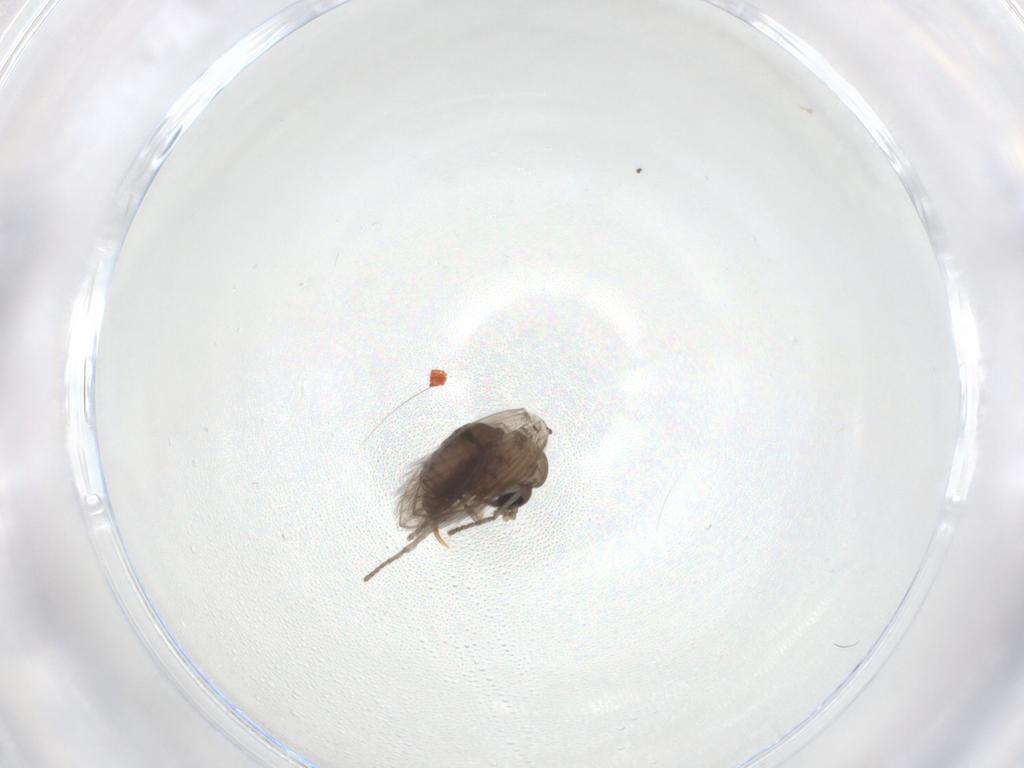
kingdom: Animalia
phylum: Arthropoda
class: Insecta
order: Diptera
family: Psychodidae
